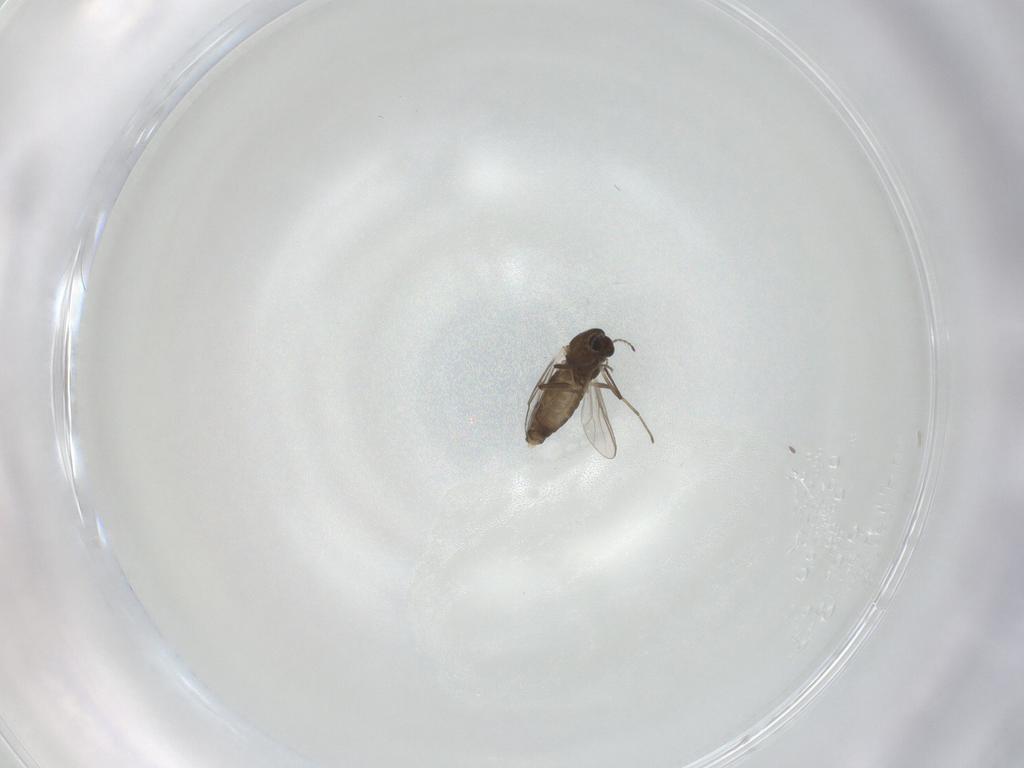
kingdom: Animalia
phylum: Arthropoda
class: Insecta
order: Diptera
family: Chironomidae
